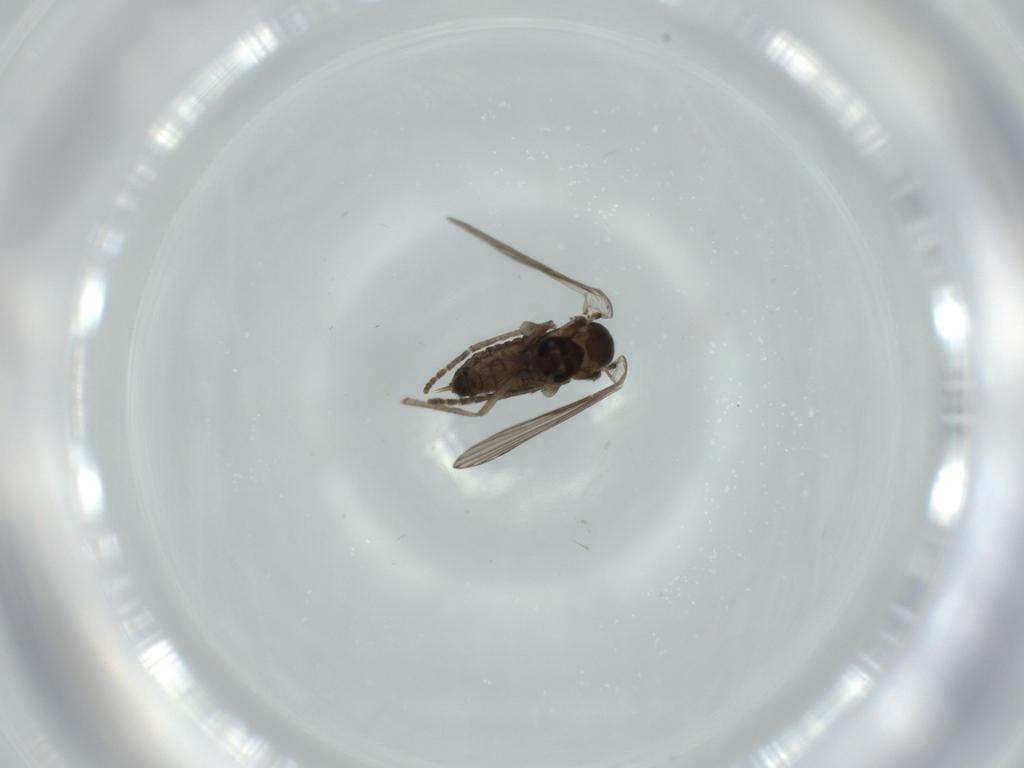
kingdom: Animalia
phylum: Arthropoda
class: Insecta
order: Diptera
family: Psychodidae
